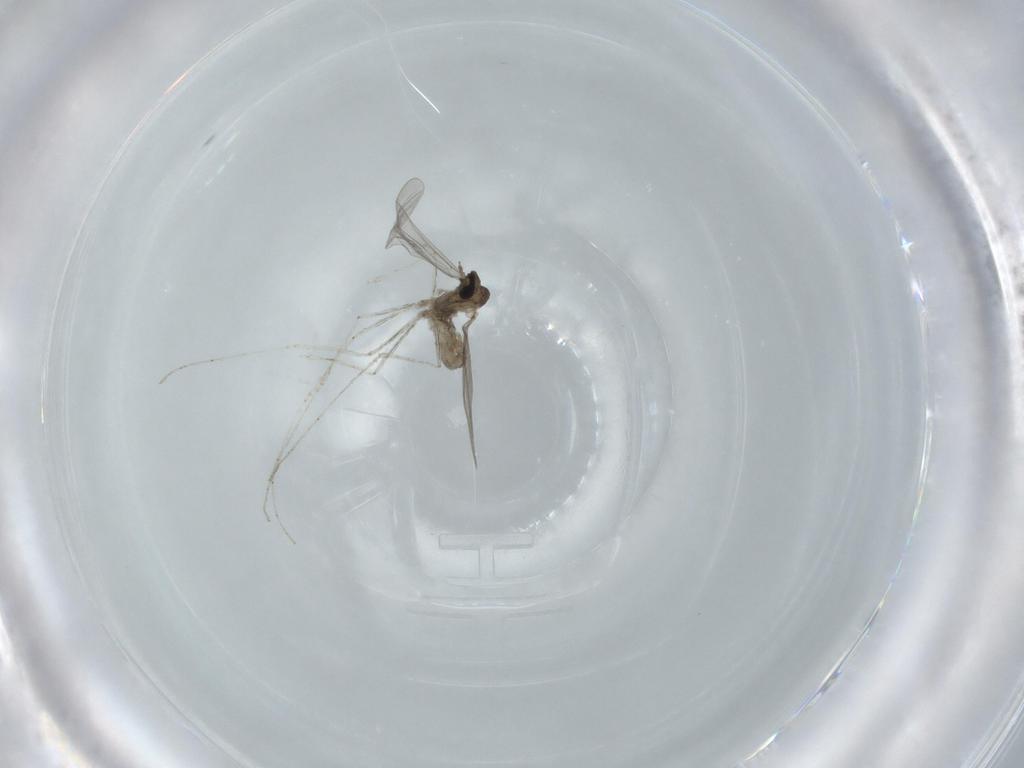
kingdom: Animalia
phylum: Arthropoda
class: Insecta
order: Diptera
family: Cecidomyiidae
